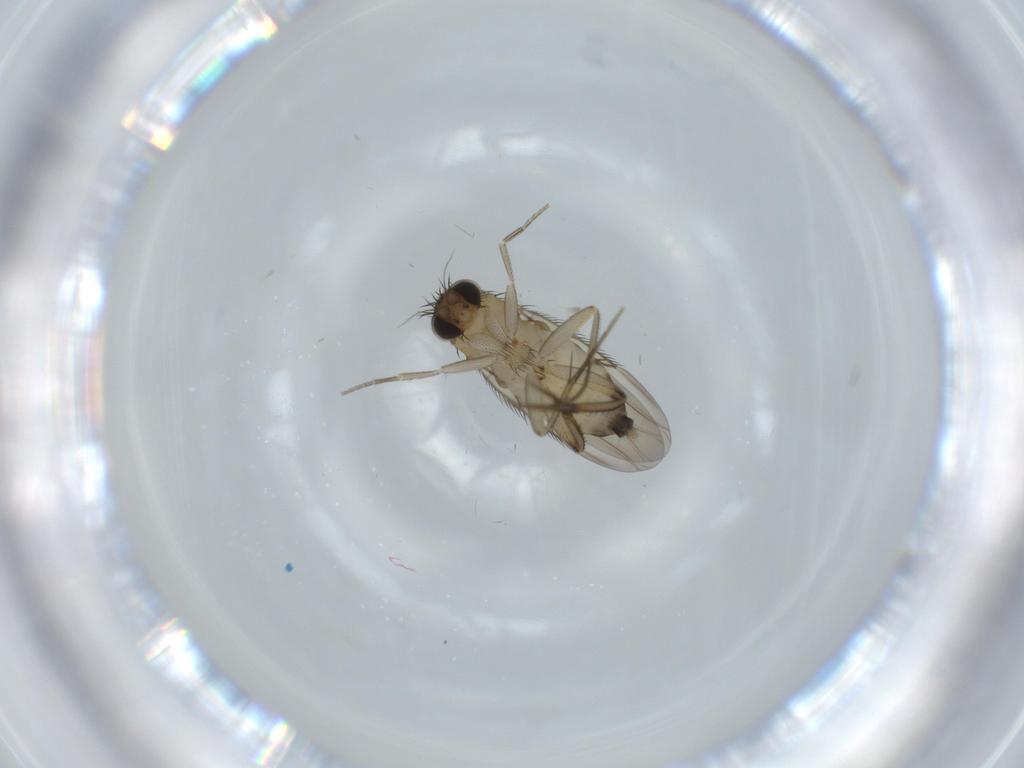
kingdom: Animalia
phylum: Arthropoda
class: Insecta
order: Diptera
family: Phoridae
